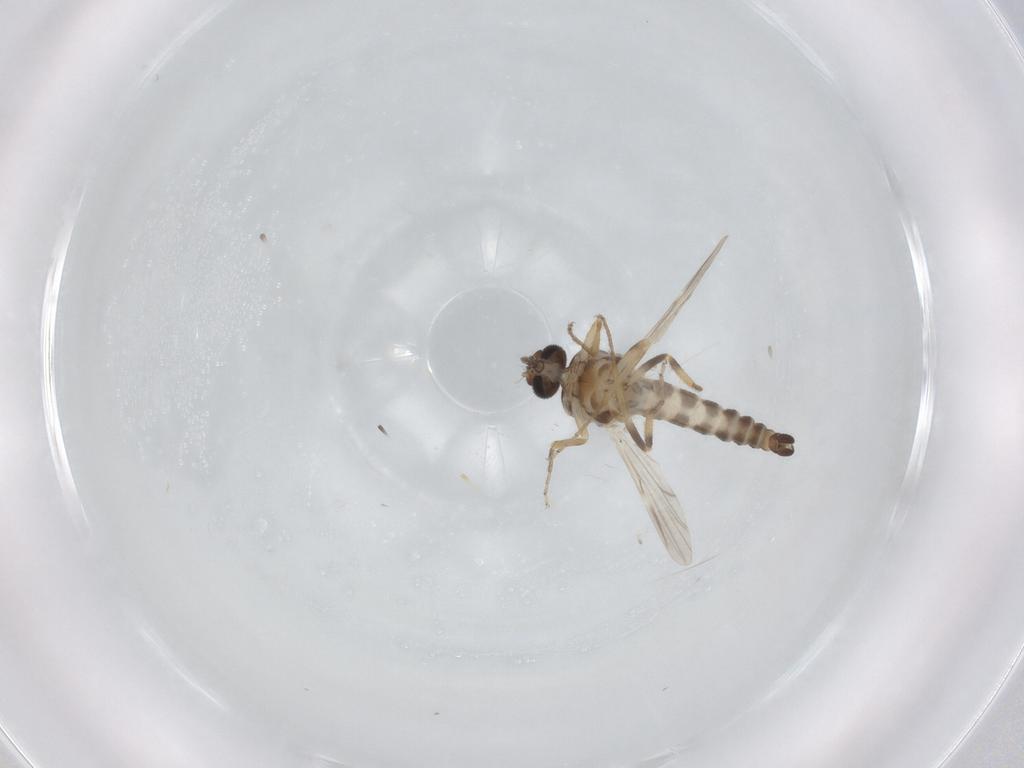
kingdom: Animalia
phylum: Arthropoda
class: Insecta
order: Diptera
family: Ceratopogonidae
